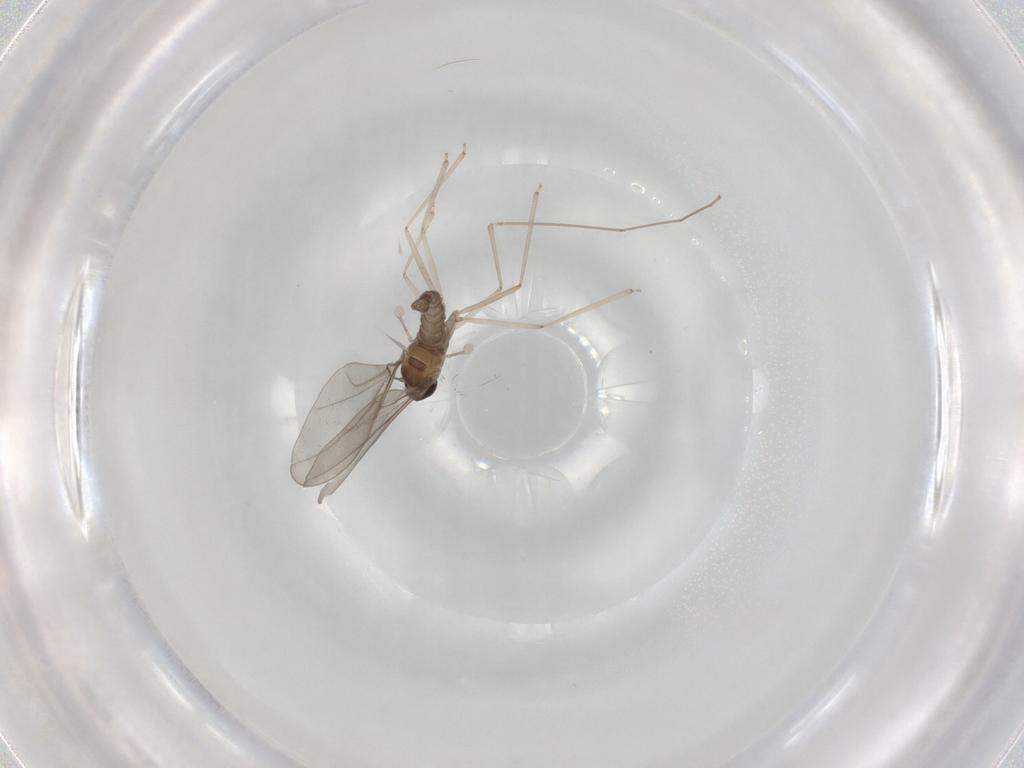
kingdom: Animalia
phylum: Arthropoda
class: Insecta
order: Diptera
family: Cecidomyiidae
